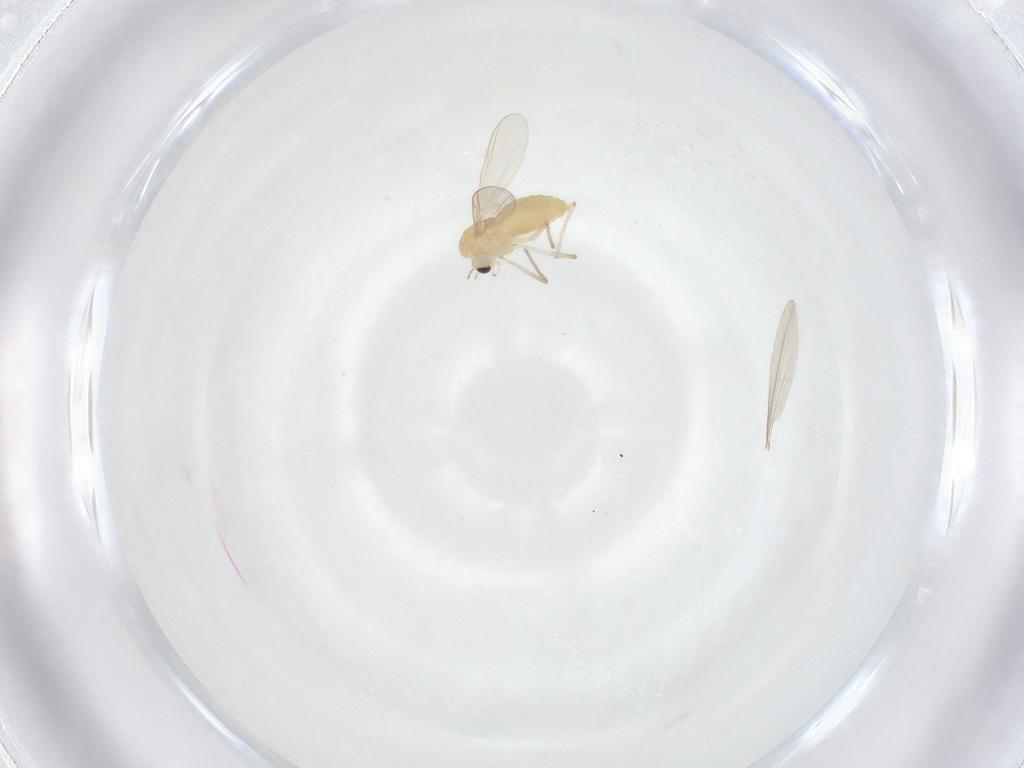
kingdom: Animalia
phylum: Arthropoda
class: Insecta
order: Diptera
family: Chironomidae
